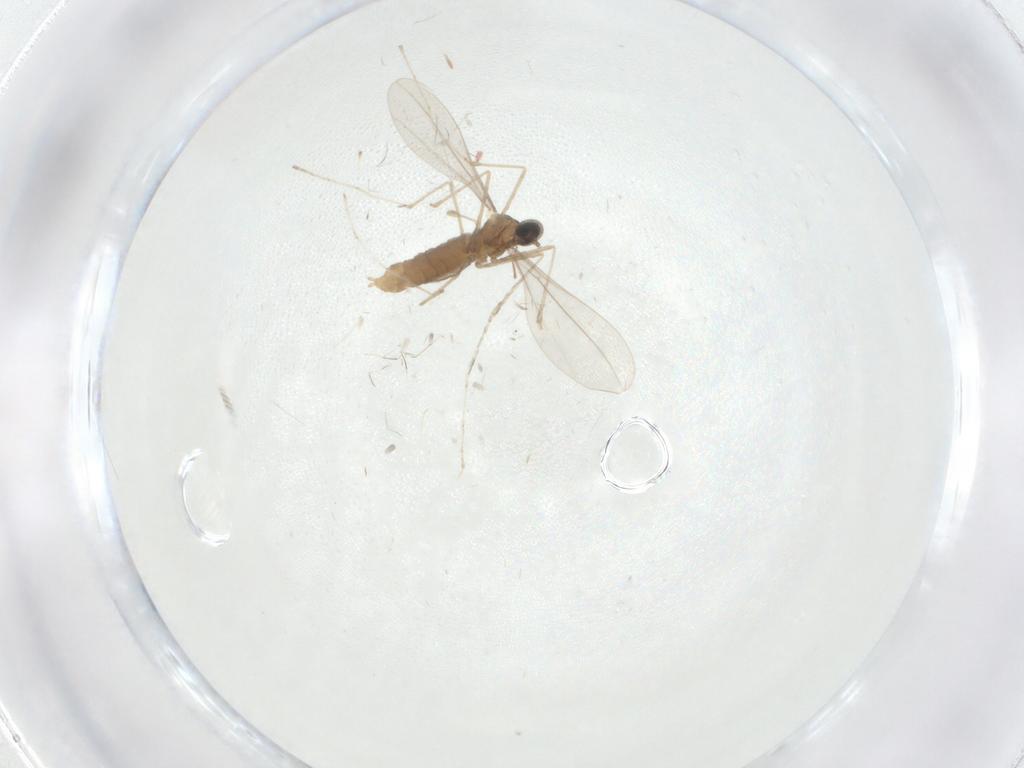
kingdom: Animalia
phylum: Arthropoda
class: Insecta
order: Diptera
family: Cecidomyiidae
